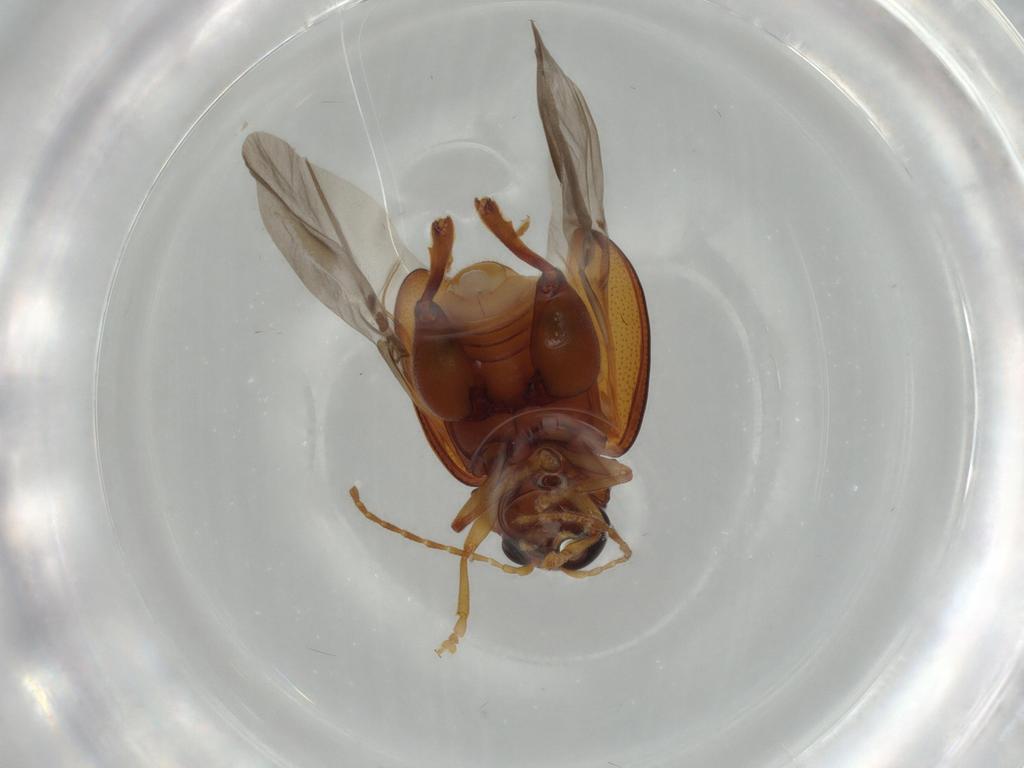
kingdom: Animalia
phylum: Arthropoda
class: Insecta
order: Coleoptera
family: Chrysomelidae
